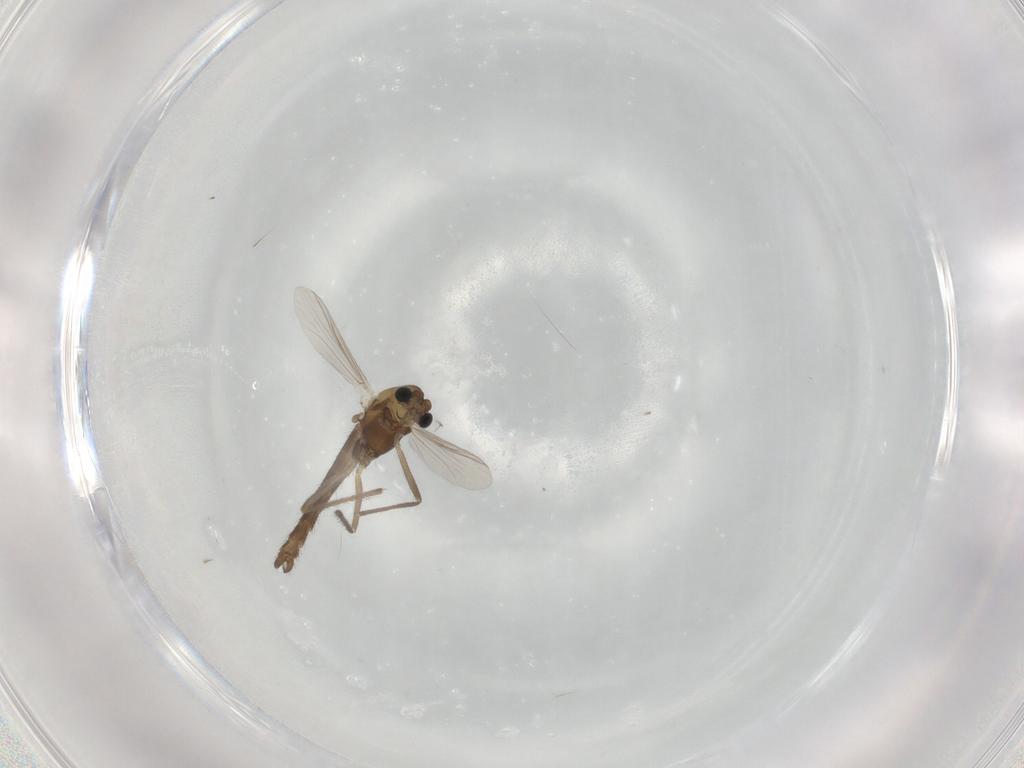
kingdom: Animalia
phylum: Arthropoda
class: Insecta
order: Diptera
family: Chironomidae
